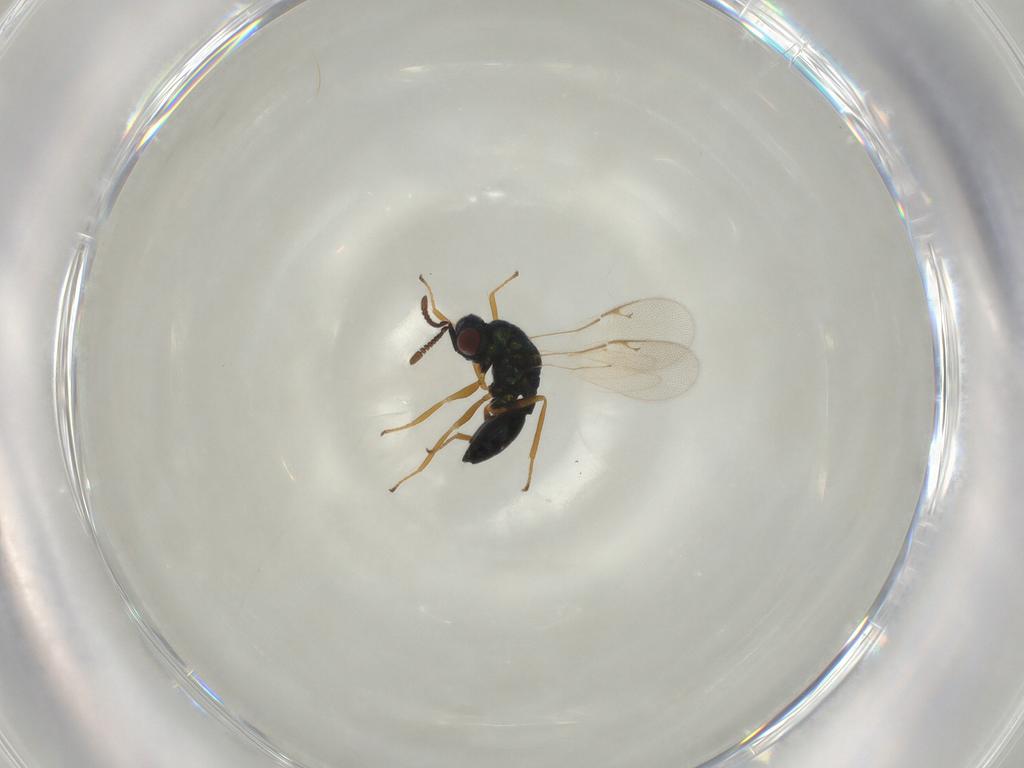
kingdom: Animalia
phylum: Arthropoda
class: Insecta
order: Hymenoptera
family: Chalcidoidea_incertae_sedis
